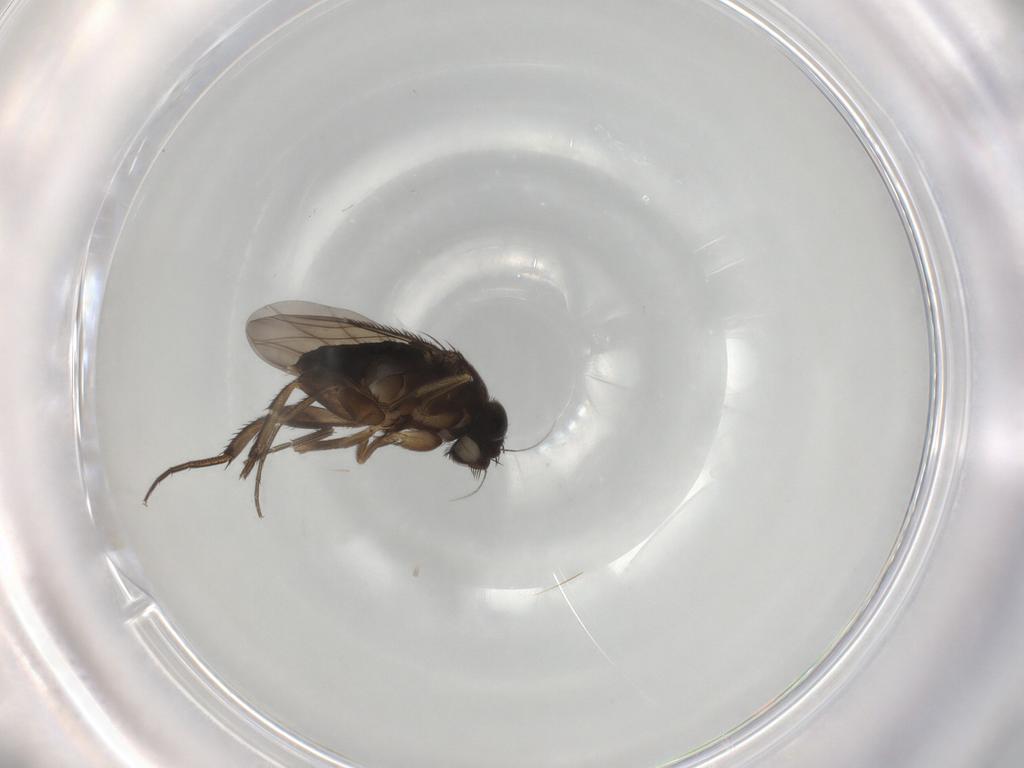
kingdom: Animalia
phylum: Arthropoda
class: Insecta
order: Diptera
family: Phoridae
